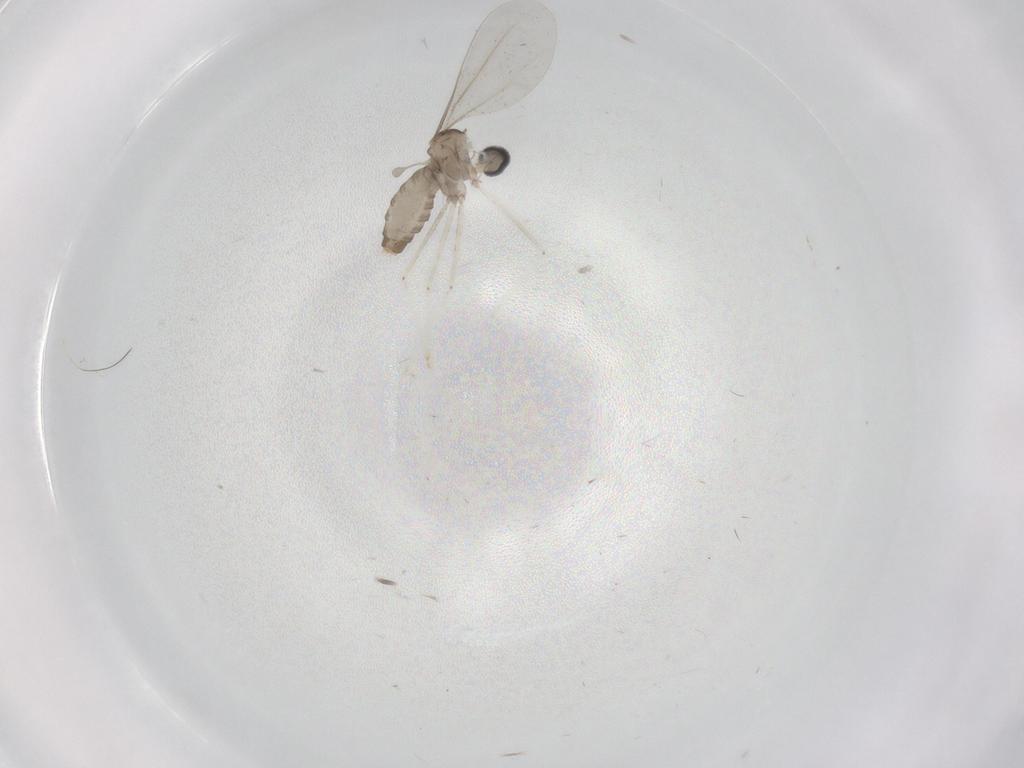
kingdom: Animalia
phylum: Arthropoda
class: Insecta
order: Diptera
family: Cecidomyiidae
